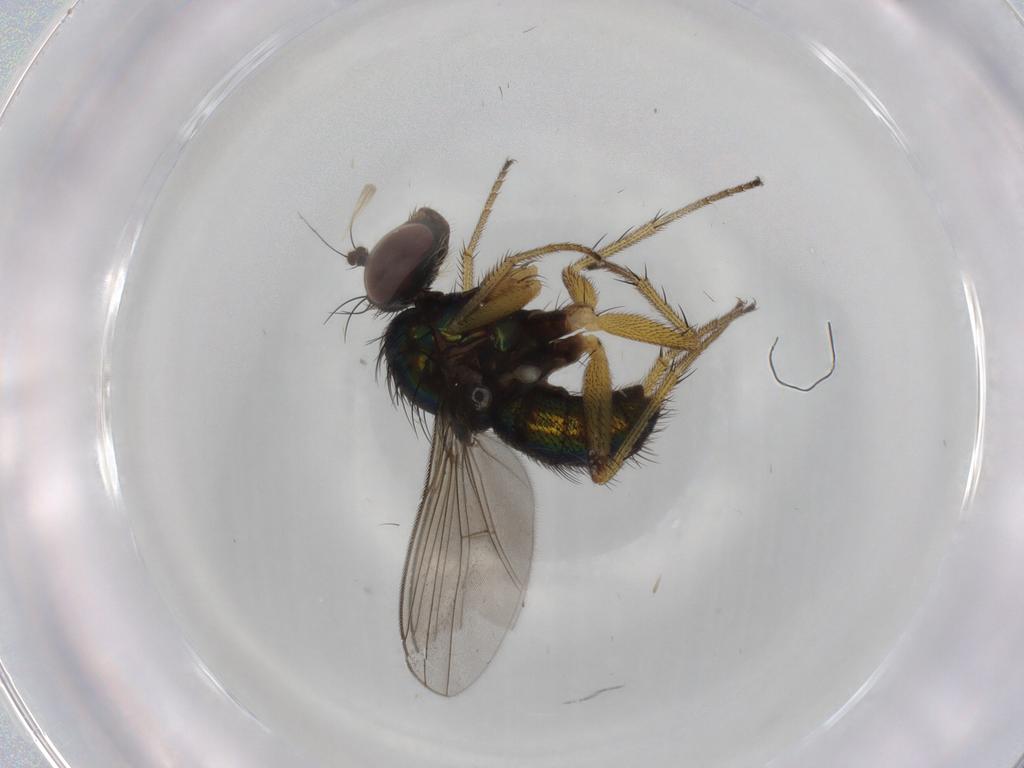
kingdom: Animalia
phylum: Arthropoda
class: Insecta
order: Diptera
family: Dolichopodidae
